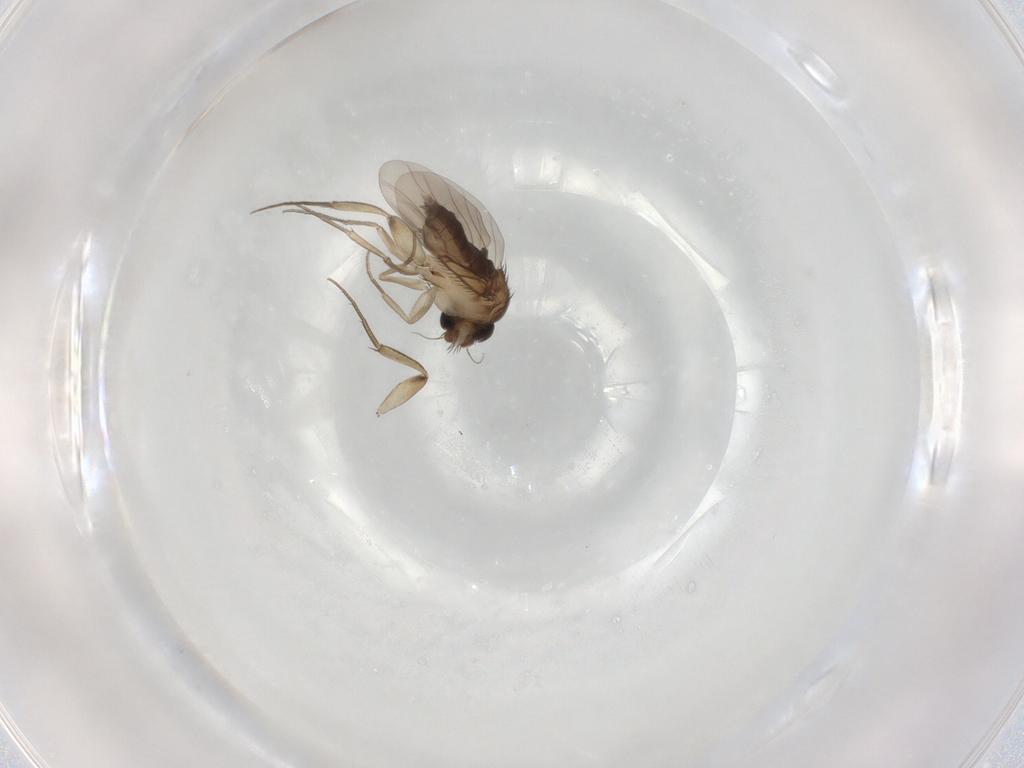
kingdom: Animalia
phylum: Arthropoda
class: Insecta
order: Diptera
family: Phoridae
